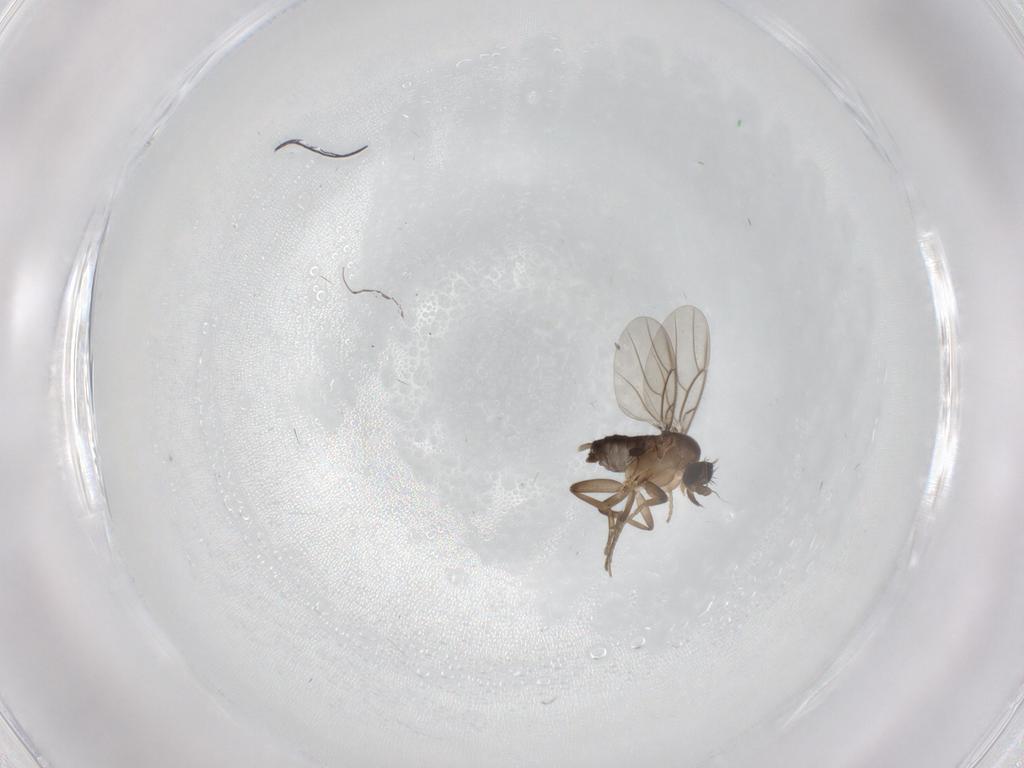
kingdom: Animalia
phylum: Arthropoda
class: Insecta
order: Diptera
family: Phoridae
